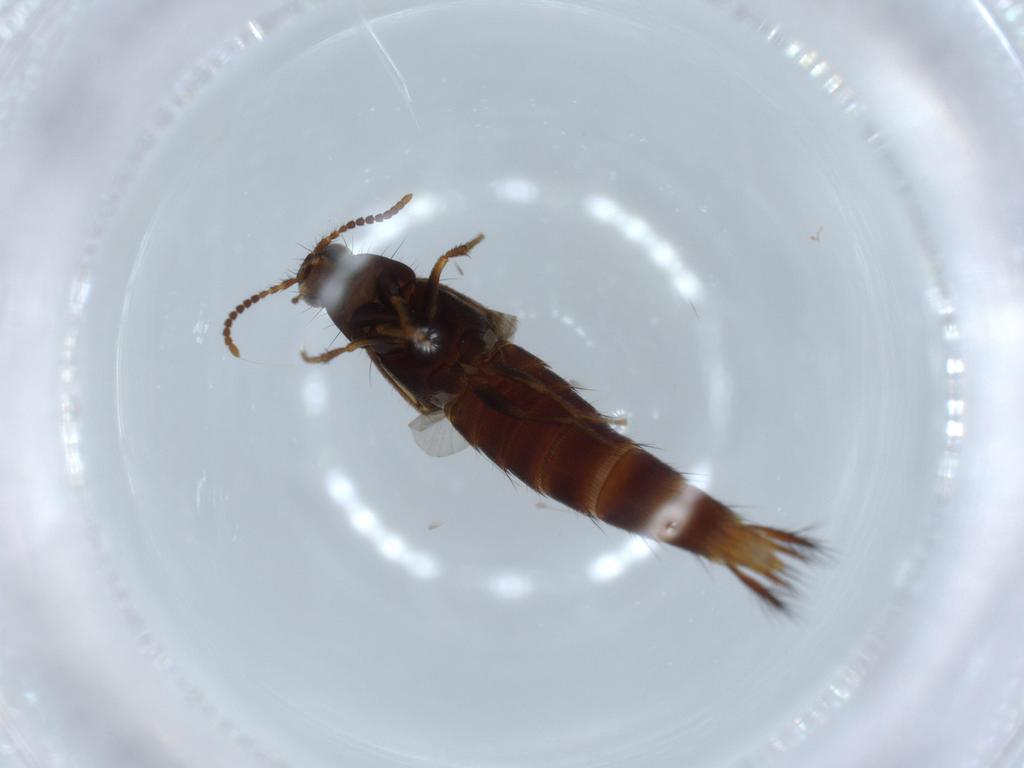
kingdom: Animalia
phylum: Arthropoda
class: Insecta
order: Coleoptera
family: Staphylinidae
